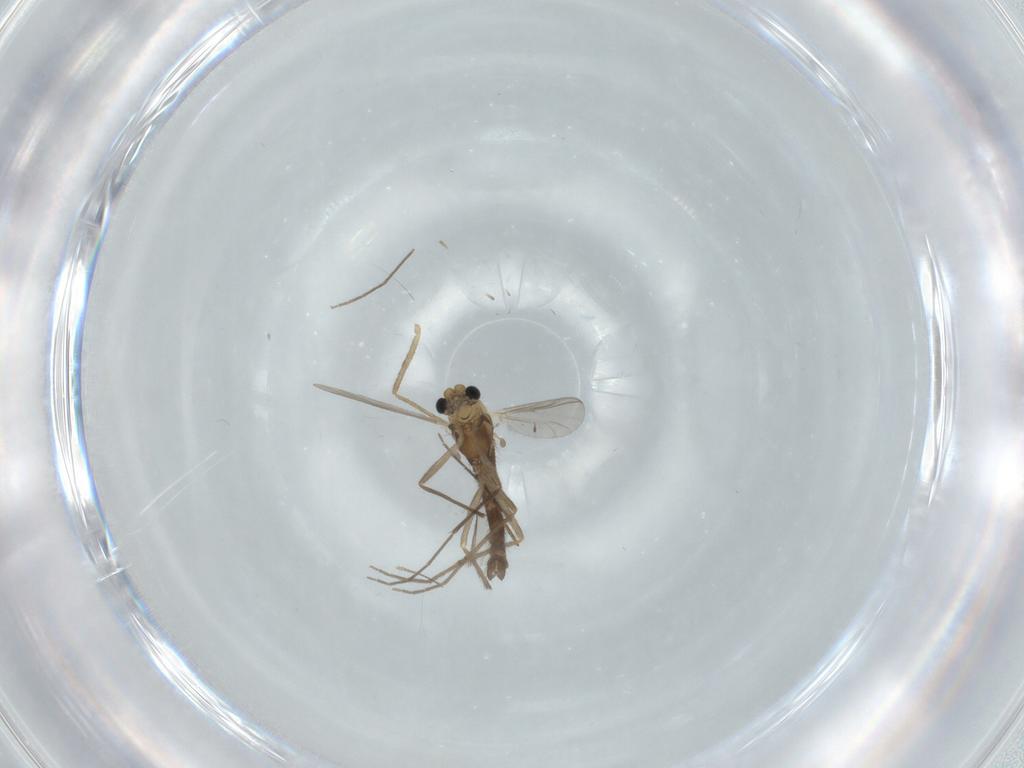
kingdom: Animalia
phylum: Arthropoda
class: Insecta
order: Diptera
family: Chironomidae
